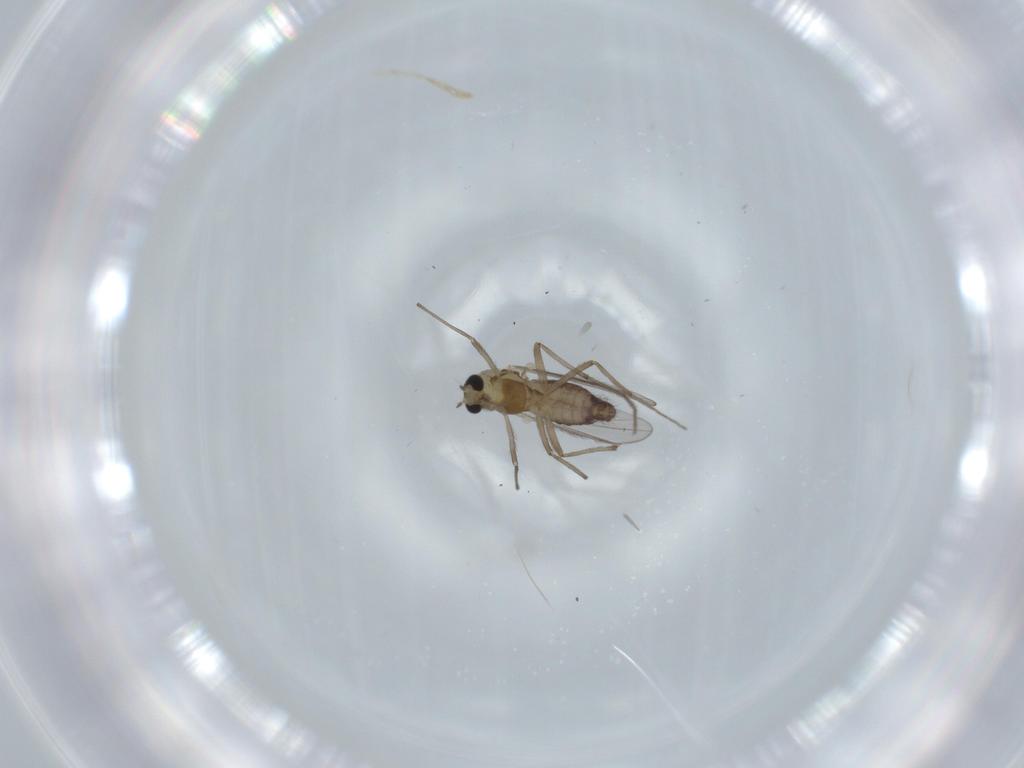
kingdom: Animalia
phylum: Arthropoda
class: Insecta
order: Diptera
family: Chironomidae
